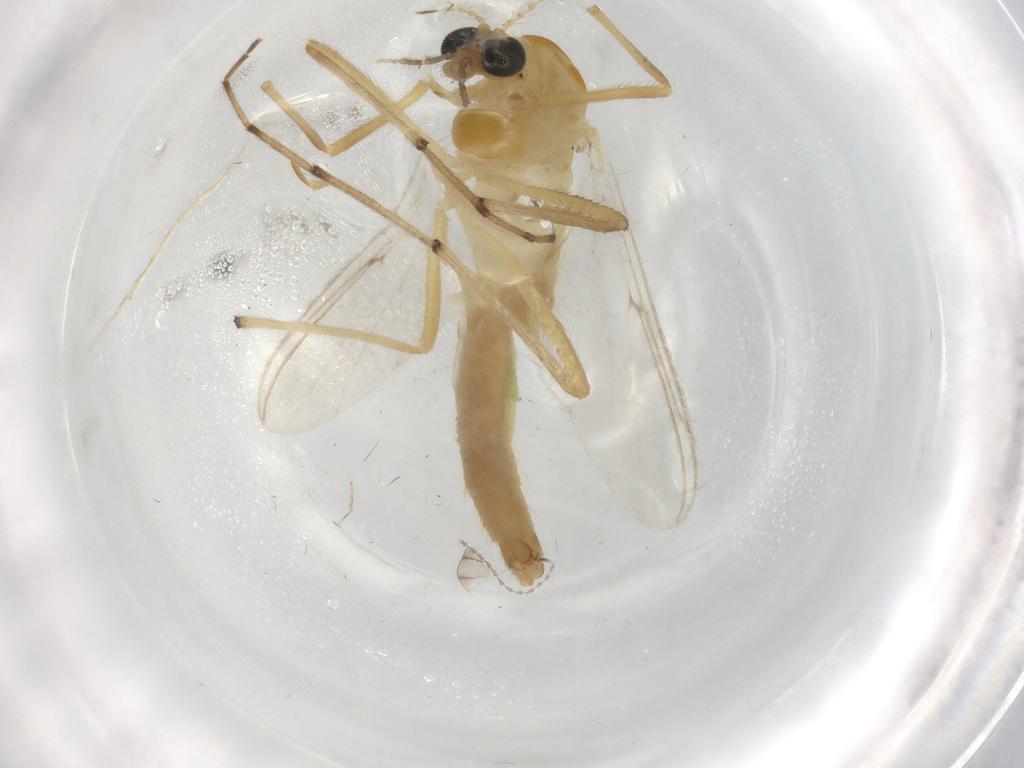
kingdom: Animalia
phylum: Arthropoda
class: Insecta
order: Diptera
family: Chironomidae
